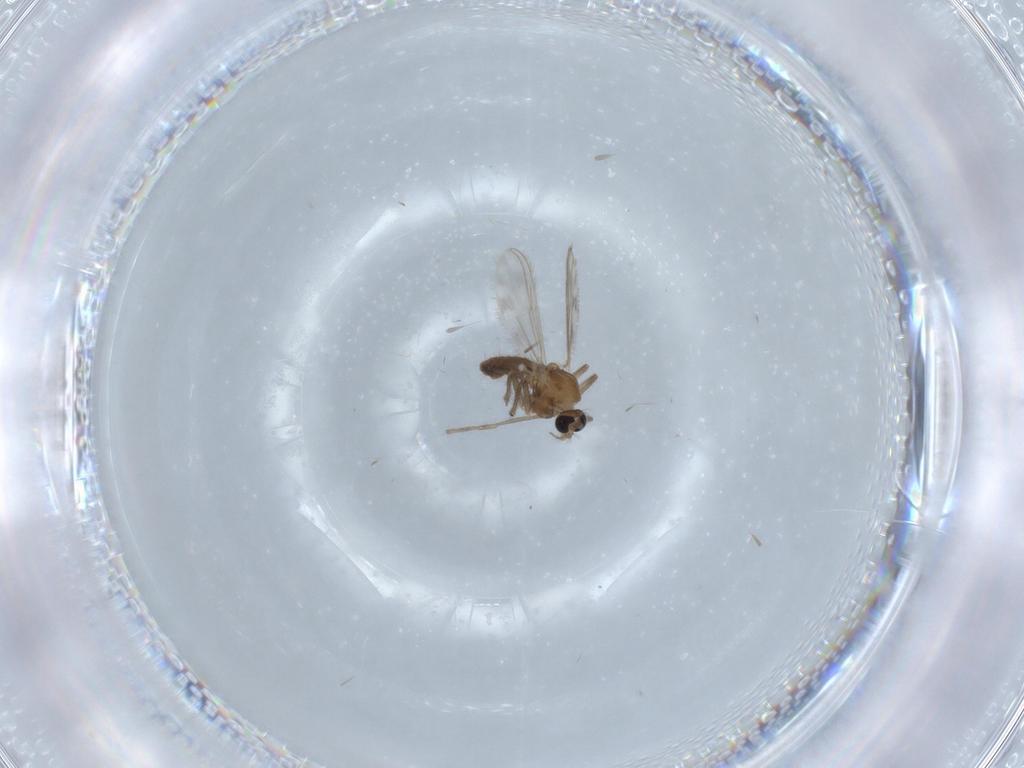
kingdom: Animalia
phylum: Arthropoda
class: Insecta
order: Diptera
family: Chironomidae
